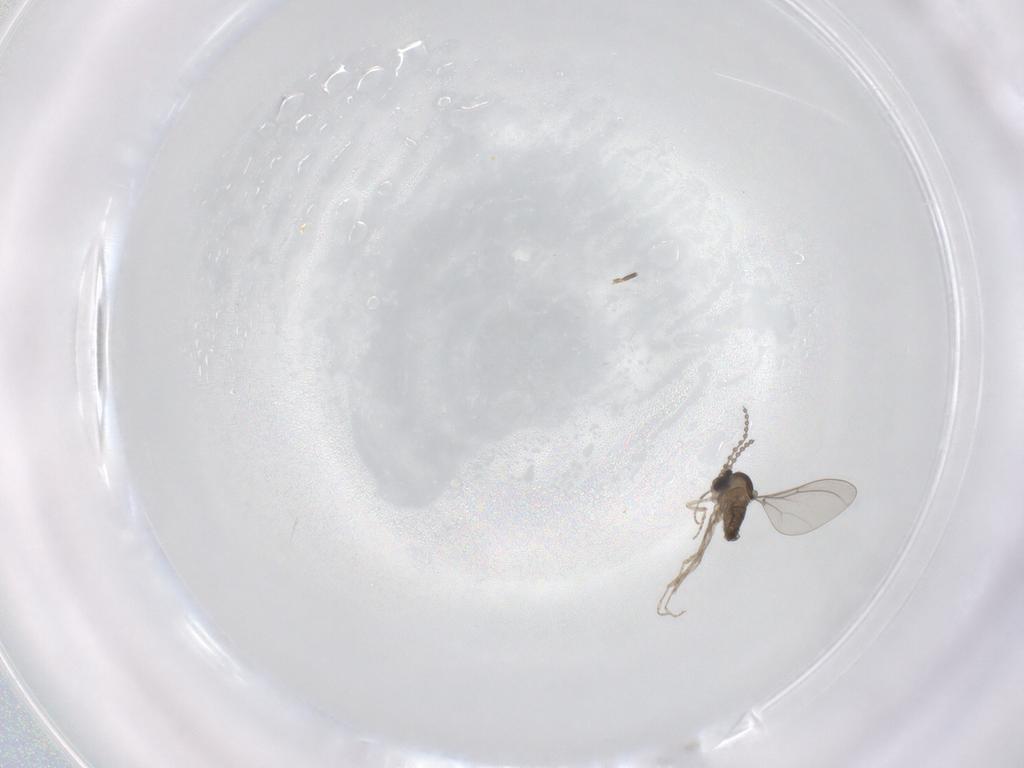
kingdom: Animalia
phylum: Arthropoda
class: Insecta
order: Diptera
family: Cecidomyiidae
